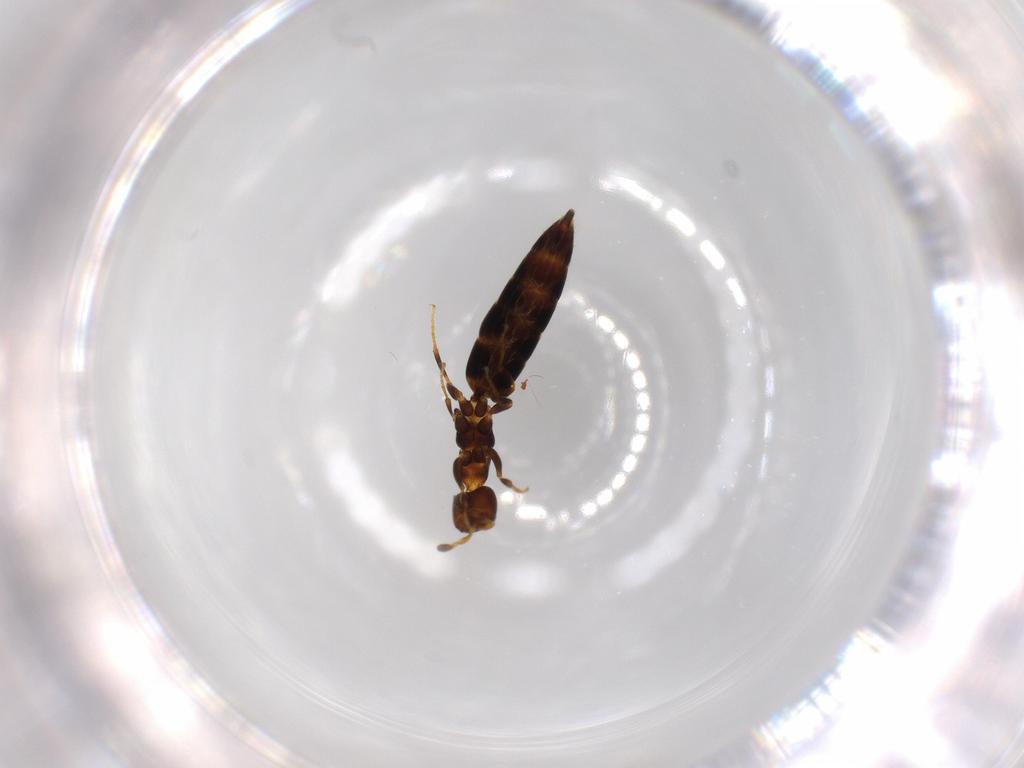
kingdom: Animalia
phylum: Arthropoda
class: Insecta
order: Hymenoptera
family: Bethylidae
